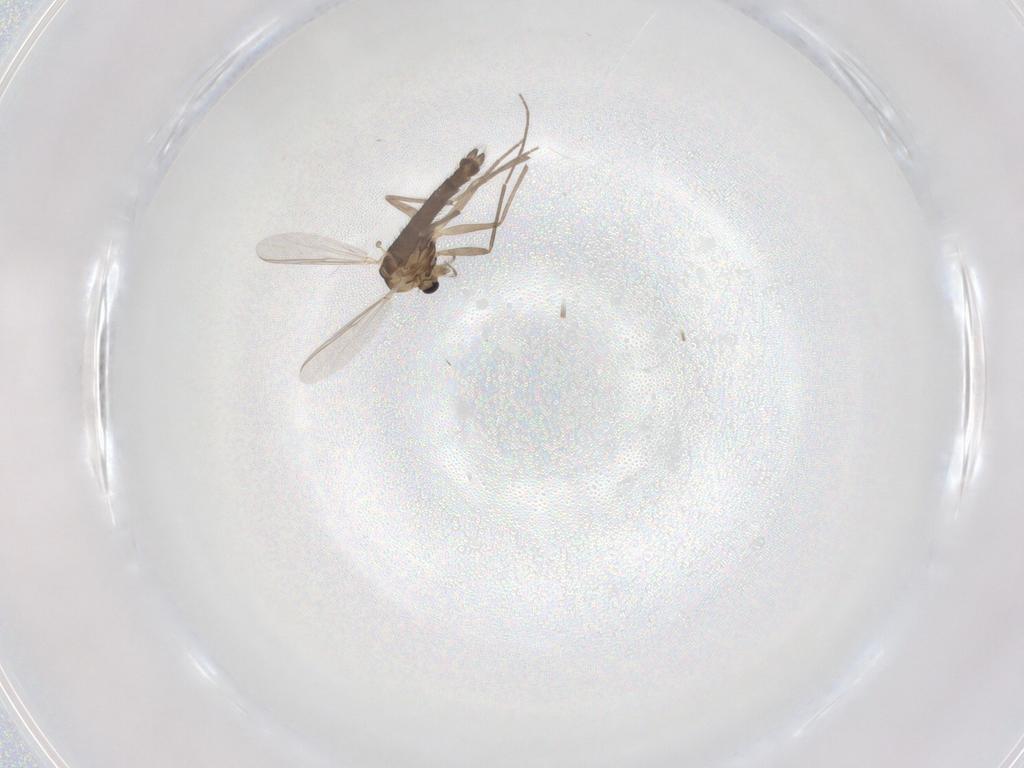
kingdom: Animalia
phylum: Arthropoda
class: Insecta
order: Diptera
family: Chironomidae
